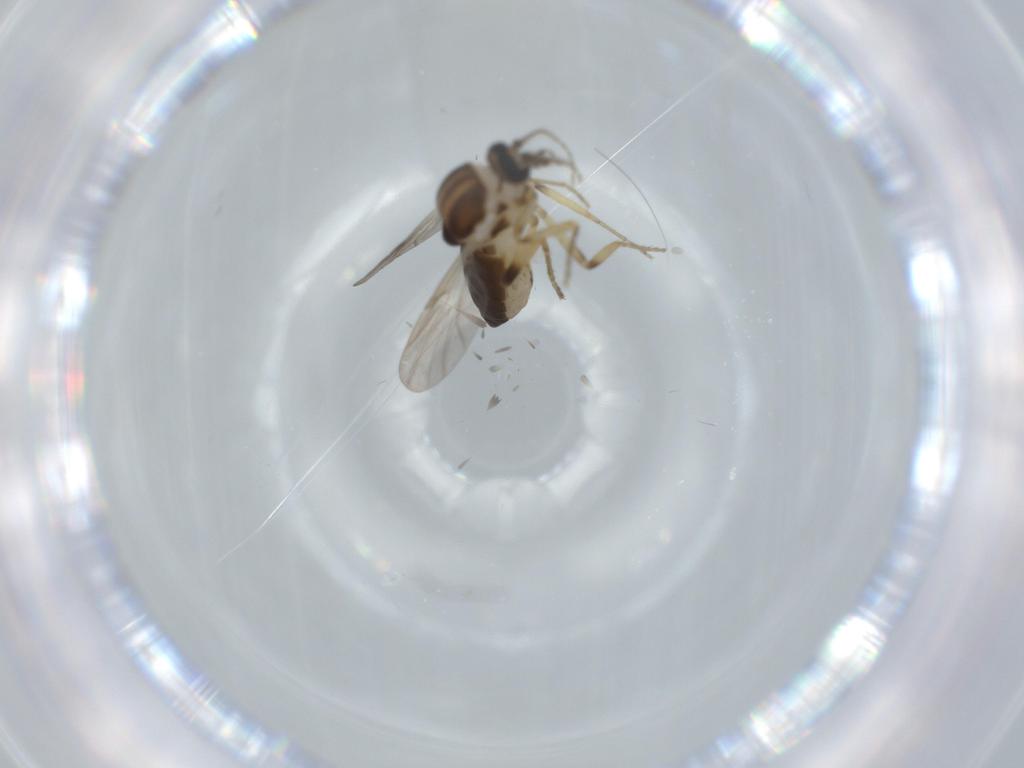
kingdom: Animalia
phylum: Arthropoda
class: Insecta
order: Diptera
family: Cecidomyiidae
